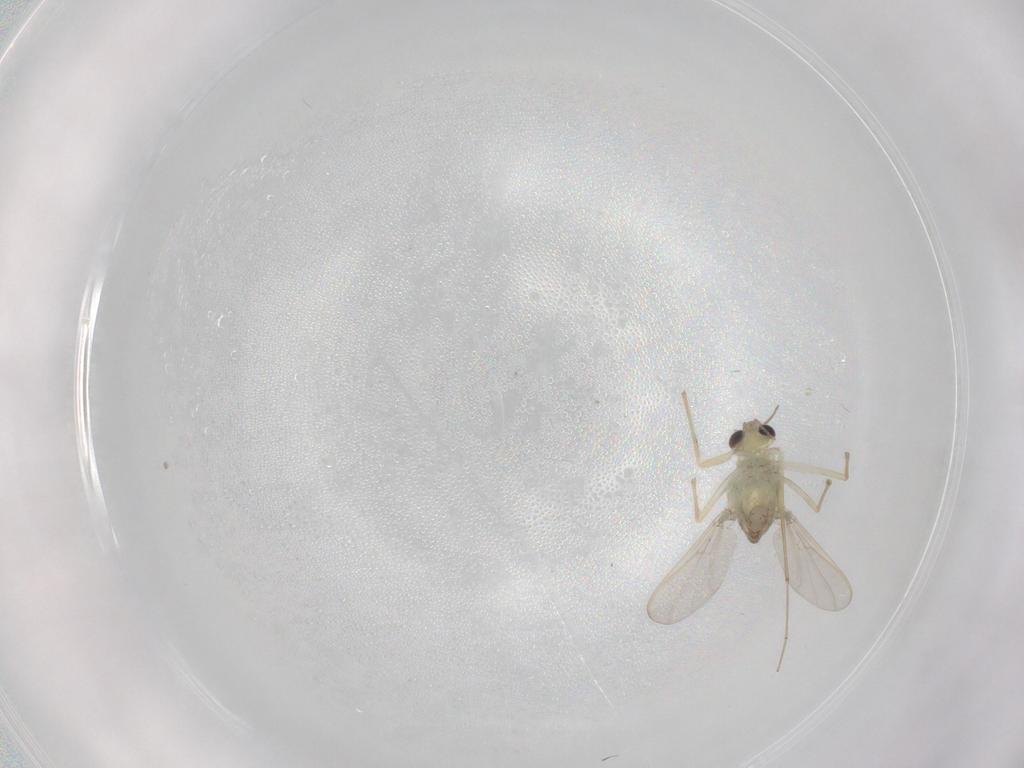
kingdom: Animalia
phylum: Arthropoda
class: Insecta
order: Diptera
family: Chironomidae
